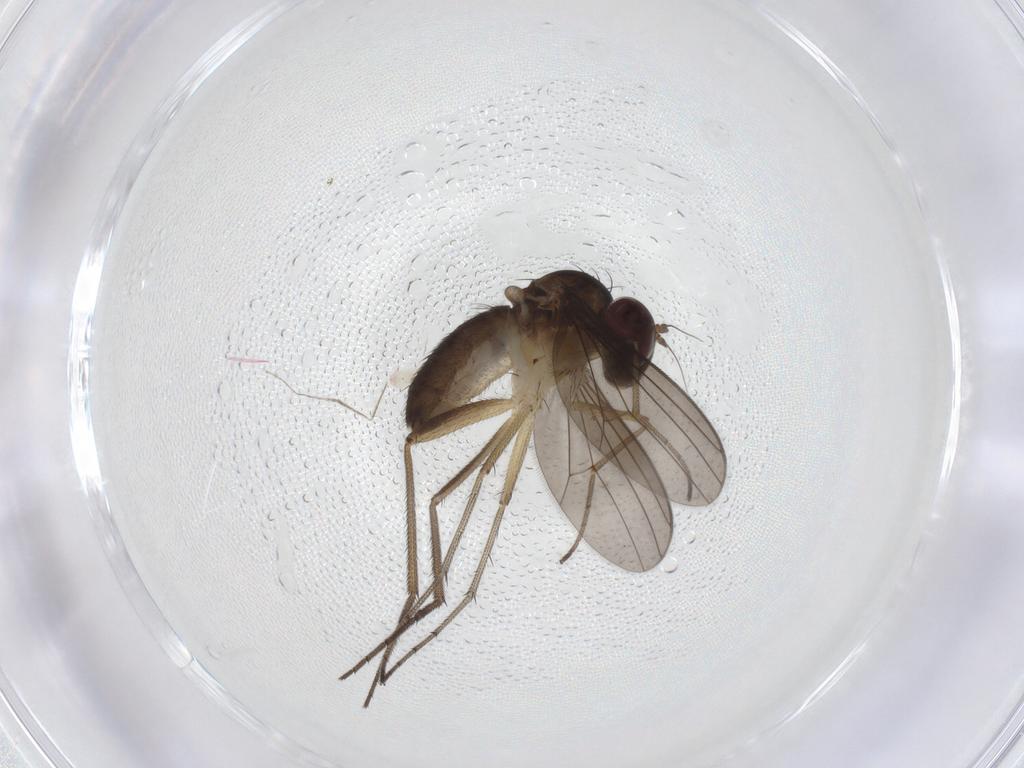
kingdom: Animalia
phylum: Arthropoda
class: Insecta
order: Diptera
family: Dolichopodidae
